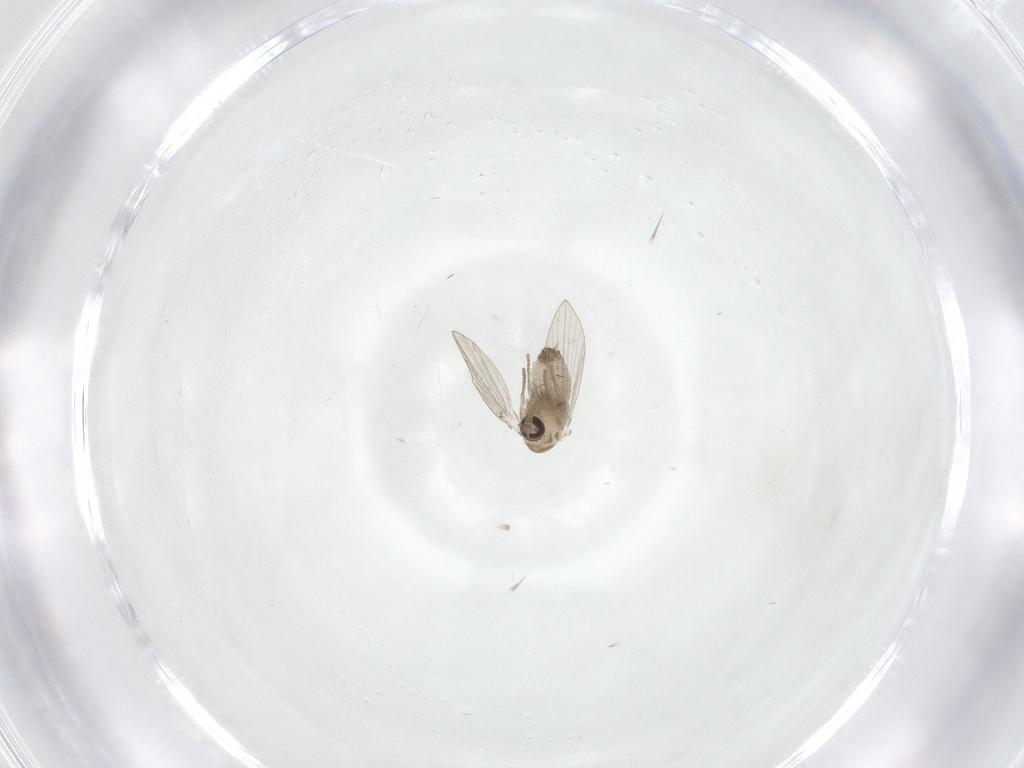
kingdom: Animalia
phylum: Arthropoda
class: Insecta
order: Diptera
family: Psychodidae
